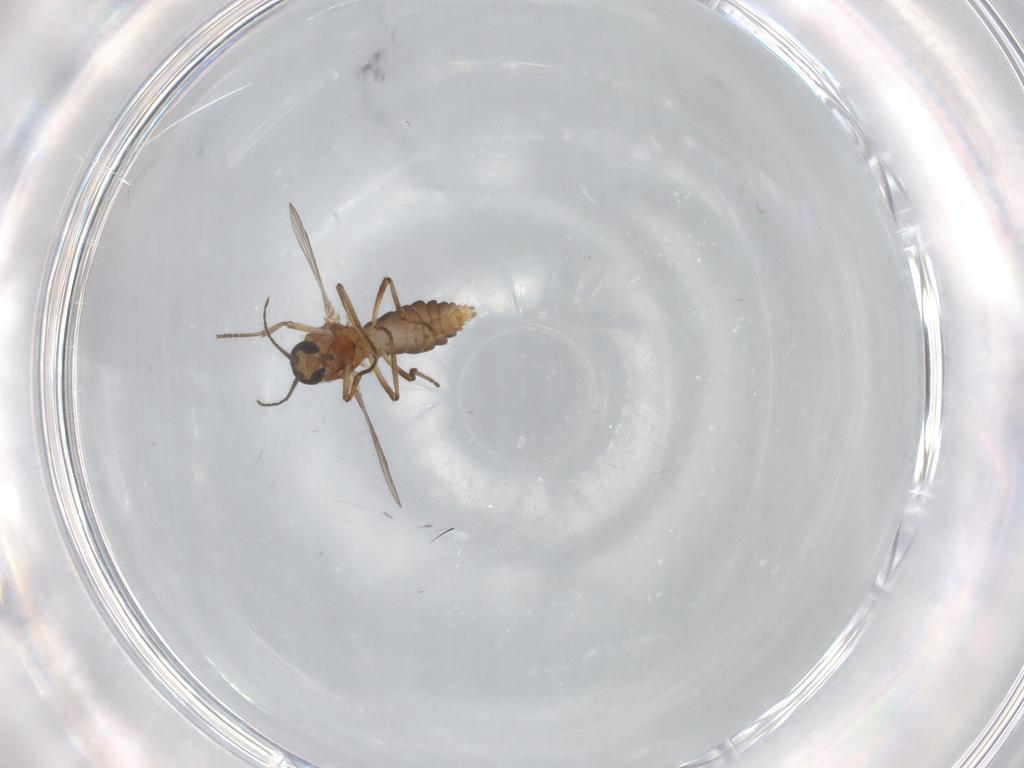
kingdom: Animalia
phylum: Arthropoda
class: Insecta
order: Diptera
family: Ceratopogonidae
